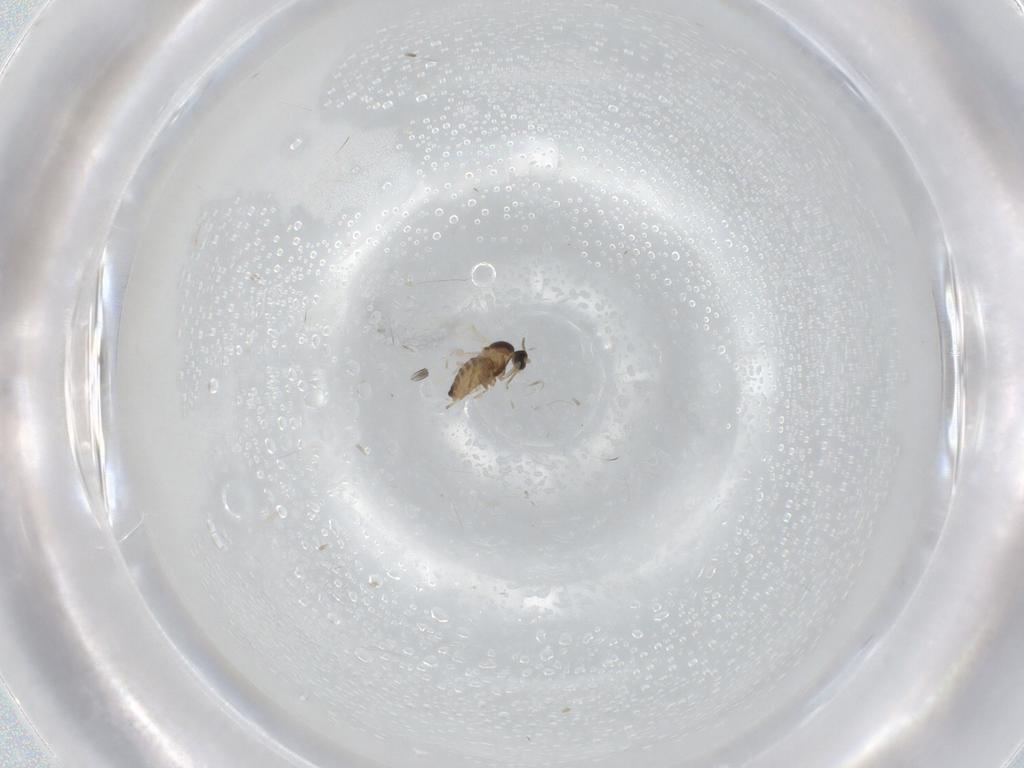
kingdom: Animalia
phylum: Arthropoda
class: Insecta
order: Diptera
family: Cecidomyiidae
